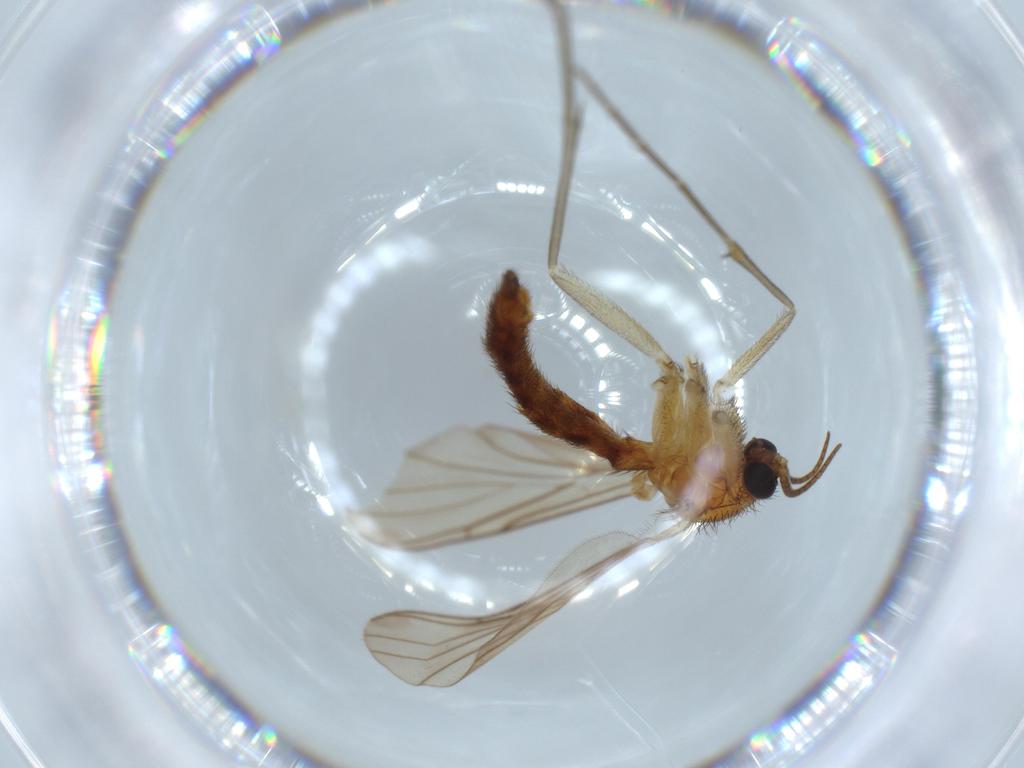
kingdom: Animalia
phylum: Arthropoda
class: Insecta
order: Diptera
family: Keroplatidae
